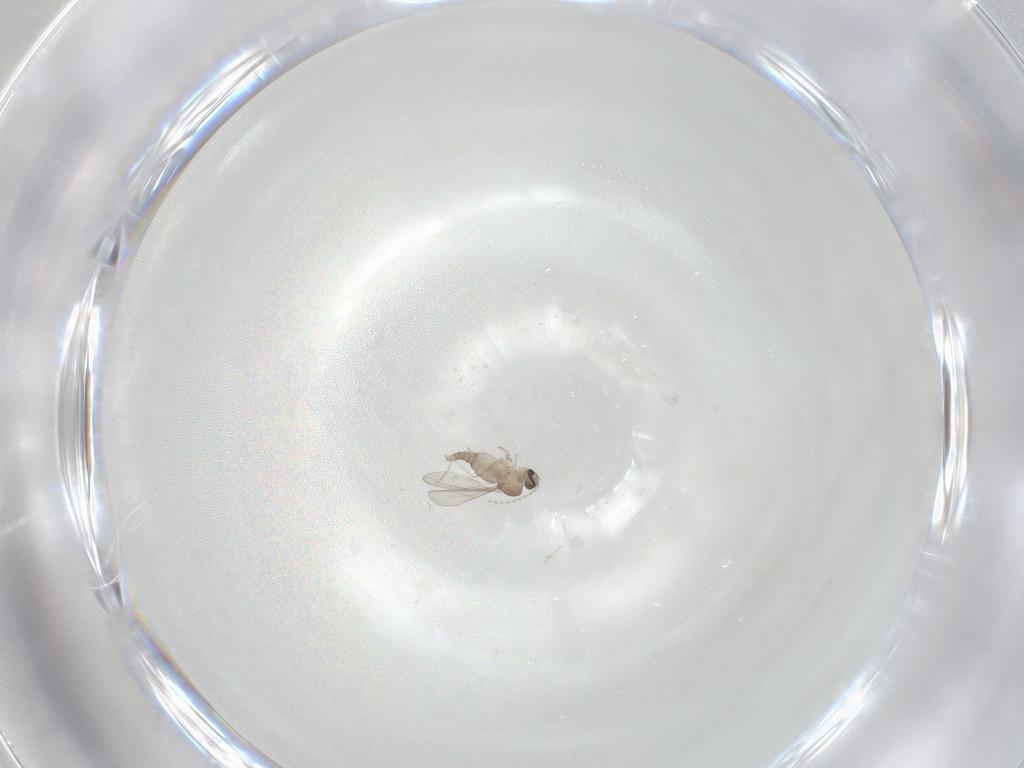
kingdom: Animalia
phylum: Arthropoda
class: Insecta
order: Diptera
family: Cecidomyiidae
